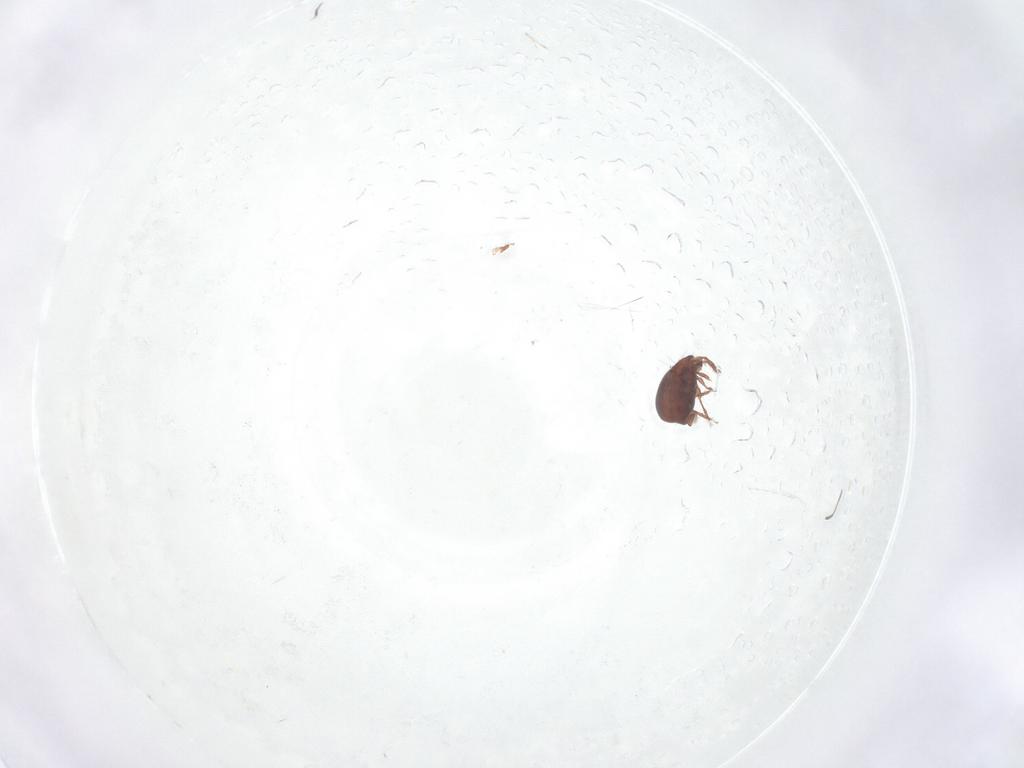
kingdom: Animalia
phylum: Arthropoda
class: Arachnida
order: Sarcoptiformes
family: Humerobatidae
